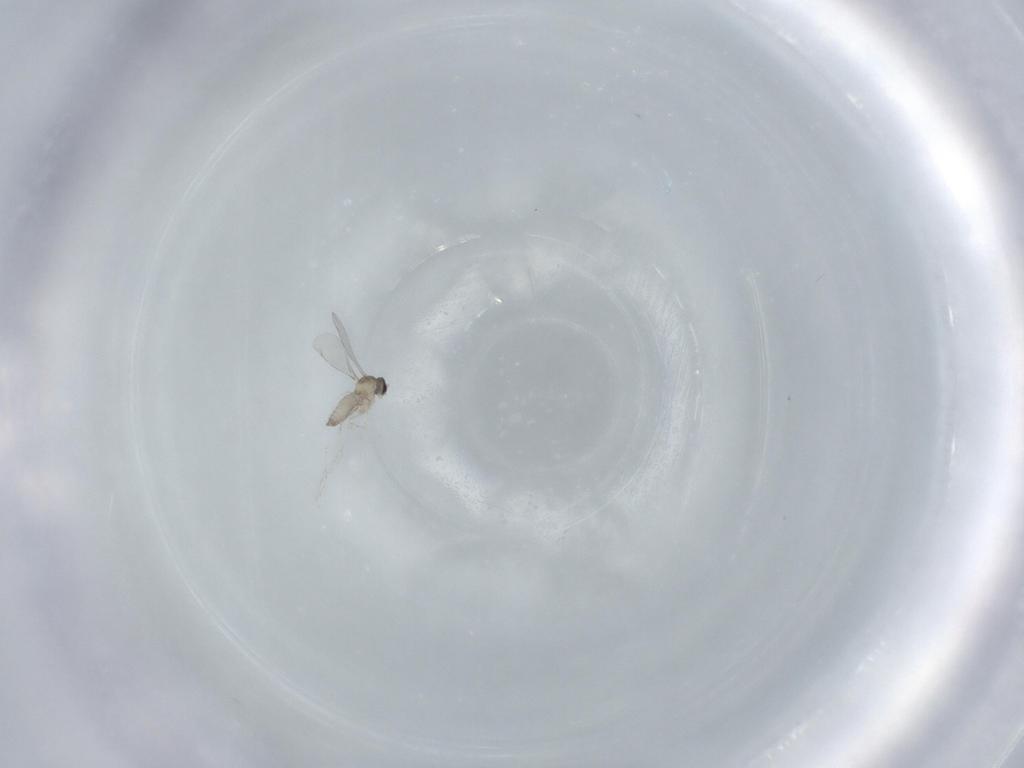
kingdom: Animalia
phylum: Arthropoda
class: Insecta
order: Diptera
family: Cecidomyiidae
